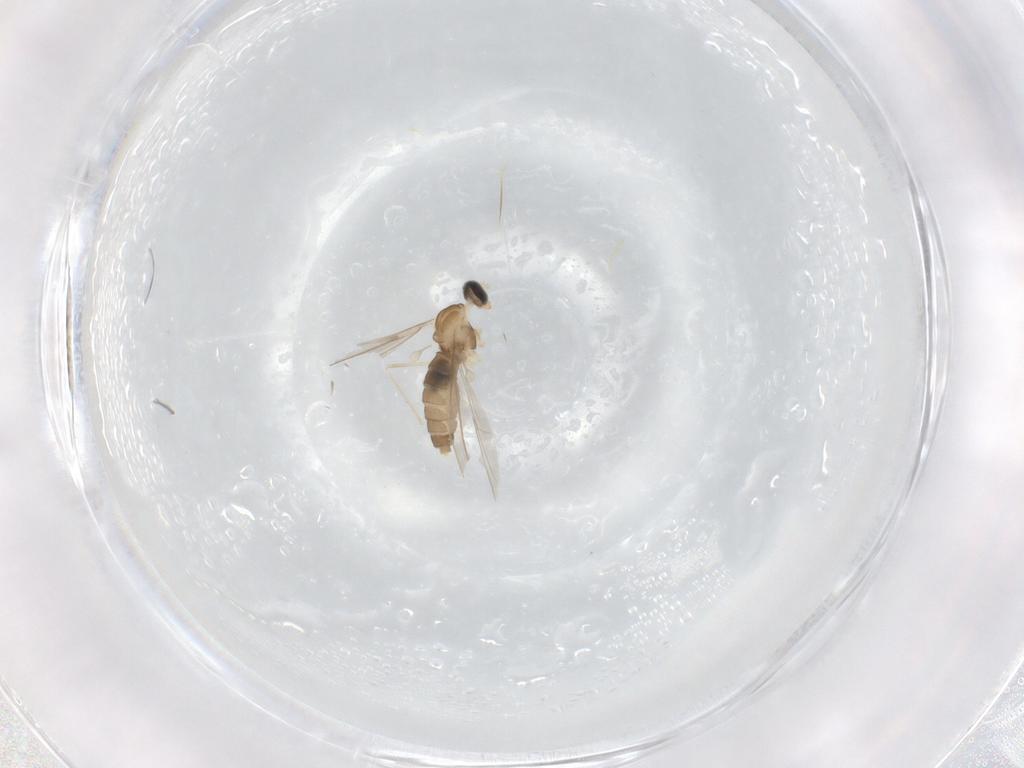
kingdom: Animalia
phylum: Arthropoda
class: Insecta
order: Diptera
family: Cecidomyiidae
